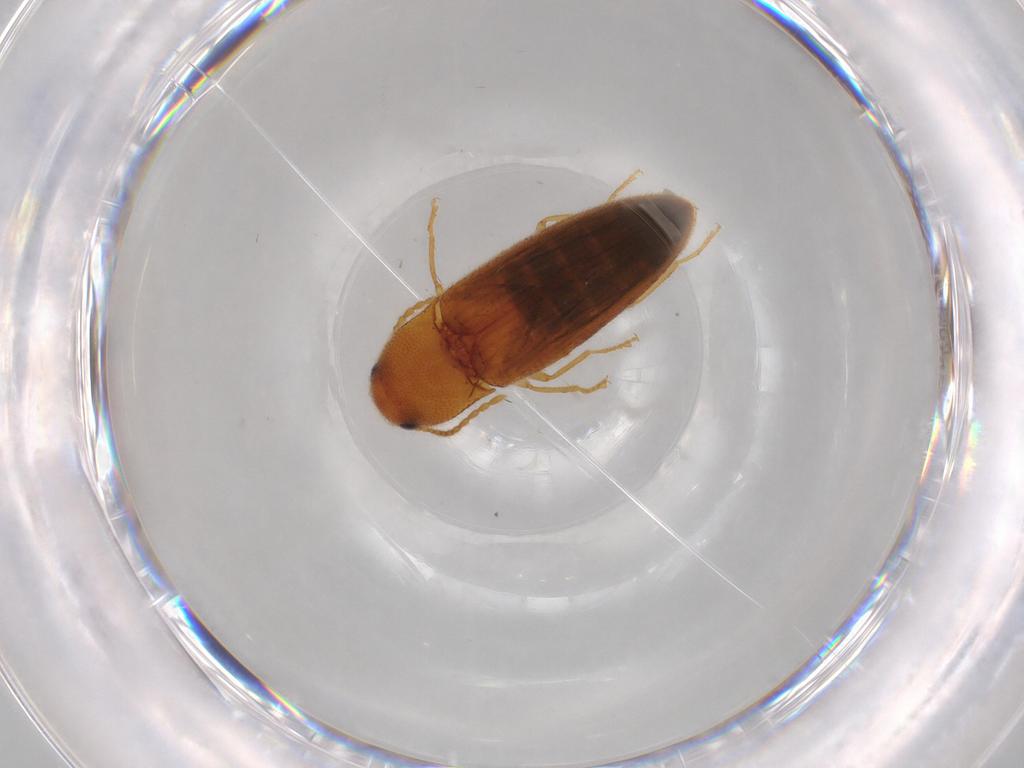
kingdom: Animalia
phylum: Arthropoda
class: Insecta
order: Coleoptera
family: Elateridae
